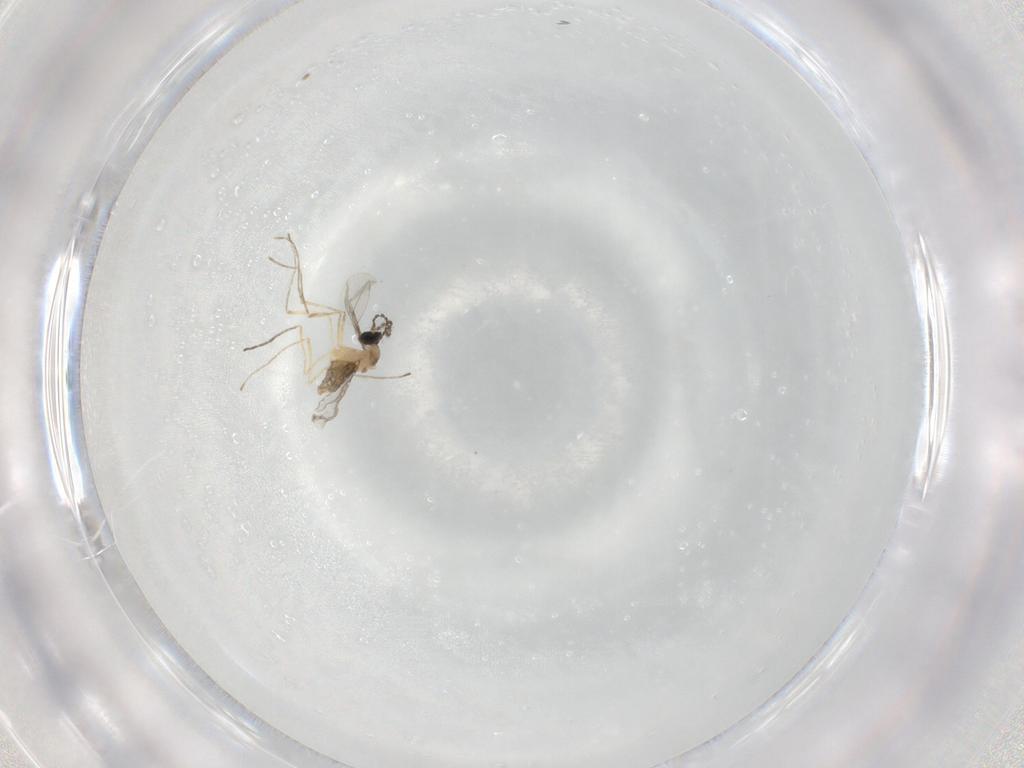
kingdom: Animalia
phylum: Arthropoda
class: Insecta
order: Diptera
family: Cecidomyiidae
